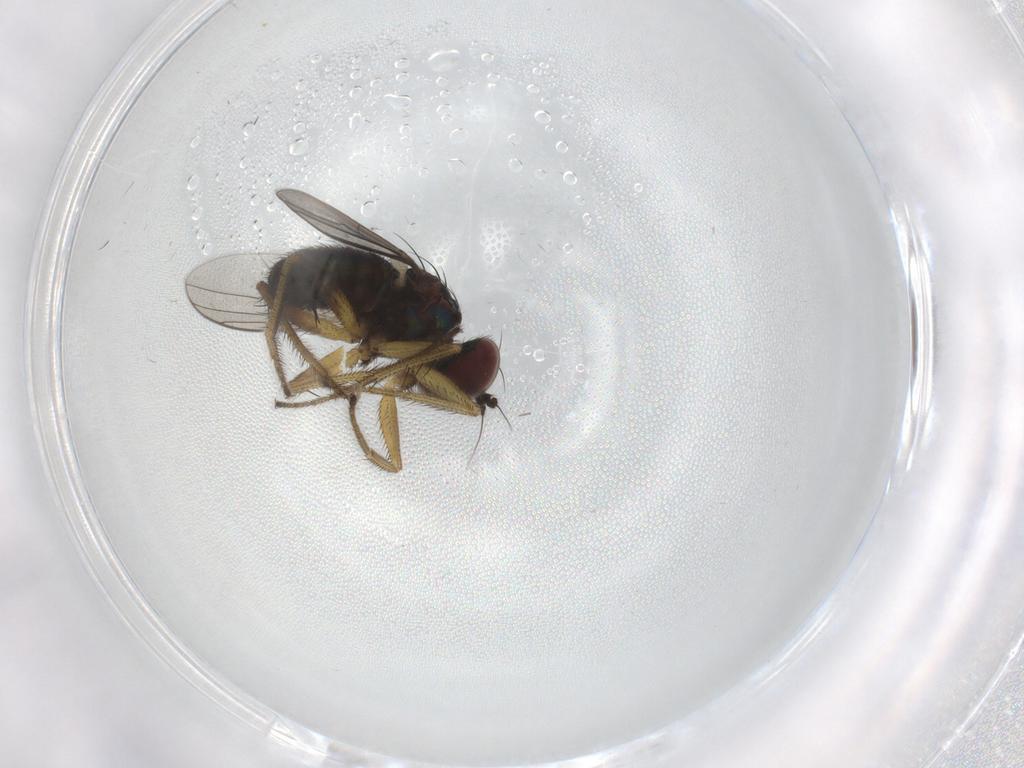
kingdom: Animalia
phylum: Arthropoda
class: Insecta
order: Diptera
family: Dolichopodidae
